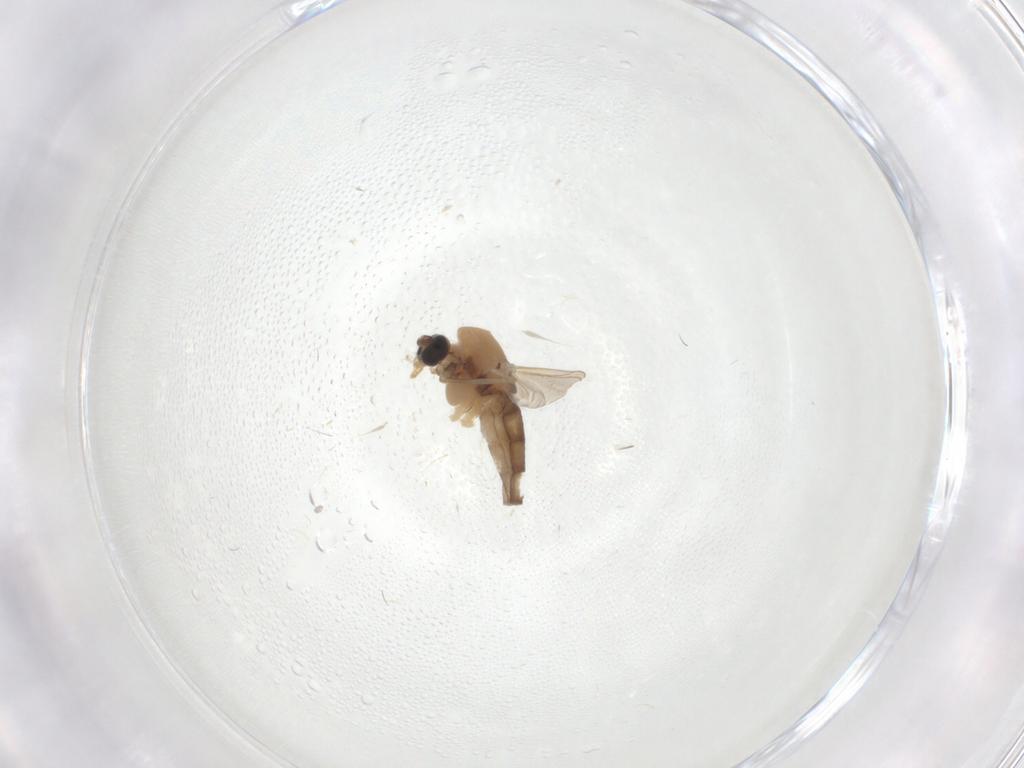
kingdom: Animalia
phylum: Arthropoda
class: Insecta
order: Diptera
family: Chironomidae
